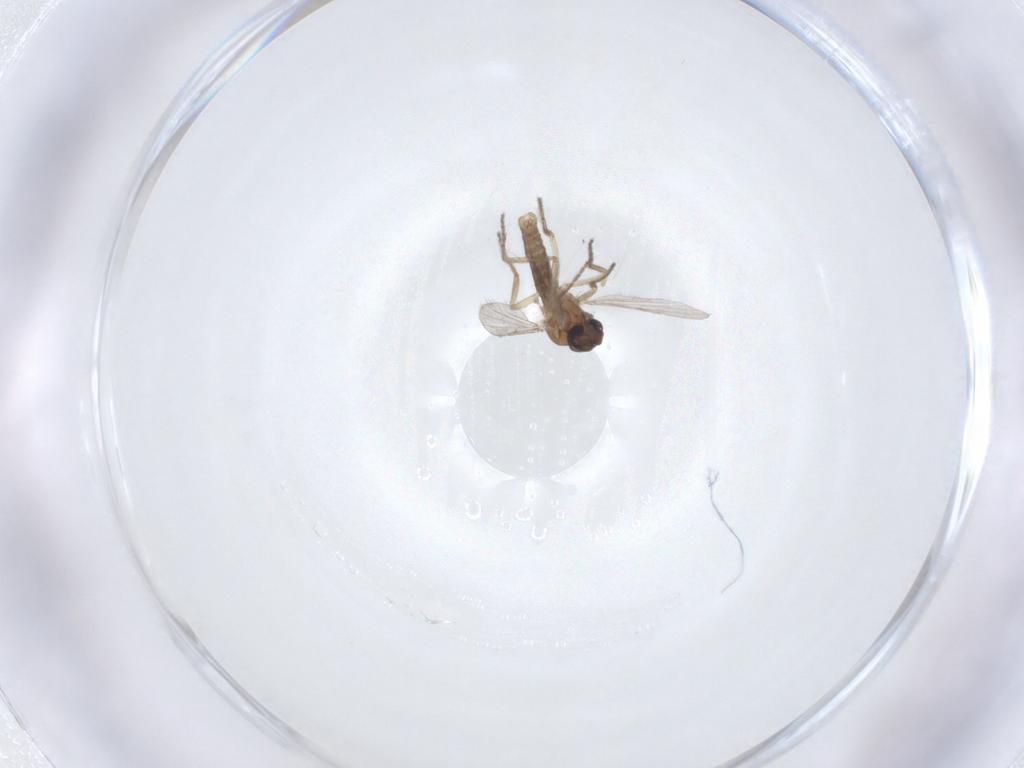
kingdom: Animalia
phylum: Arthropoda
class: Insecta
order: Diptera
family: Ceratopogonidae
